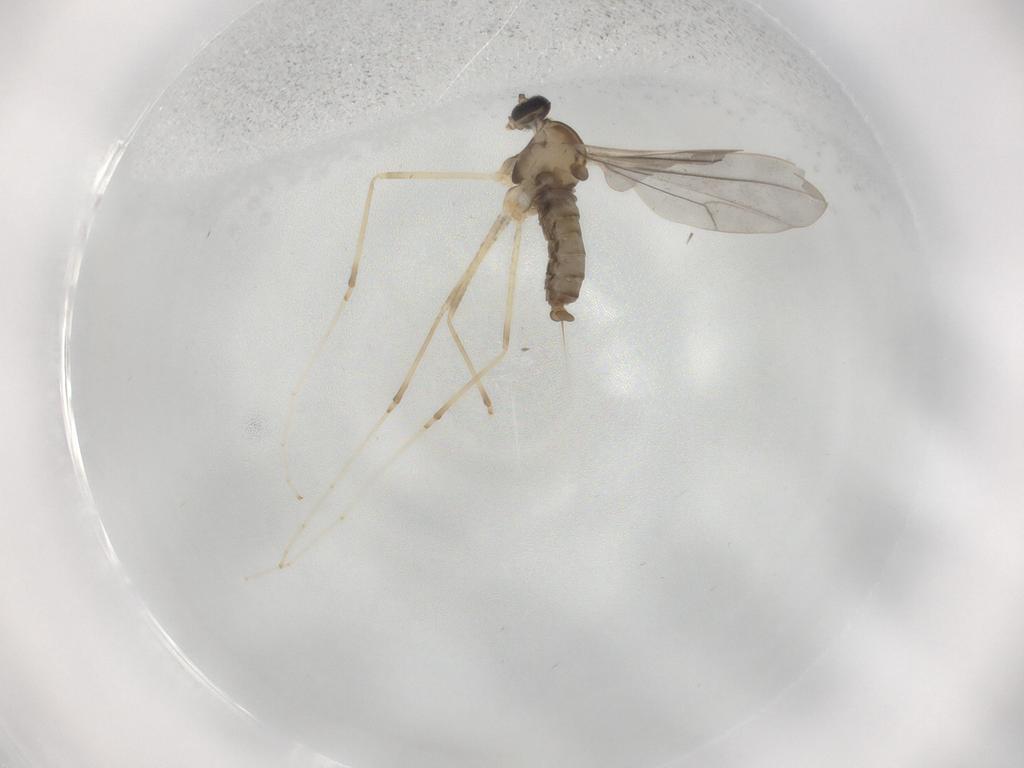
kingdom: Animalia
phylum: Arthropoda
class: Insecta
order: Diptera
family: Cecidomyiidae
